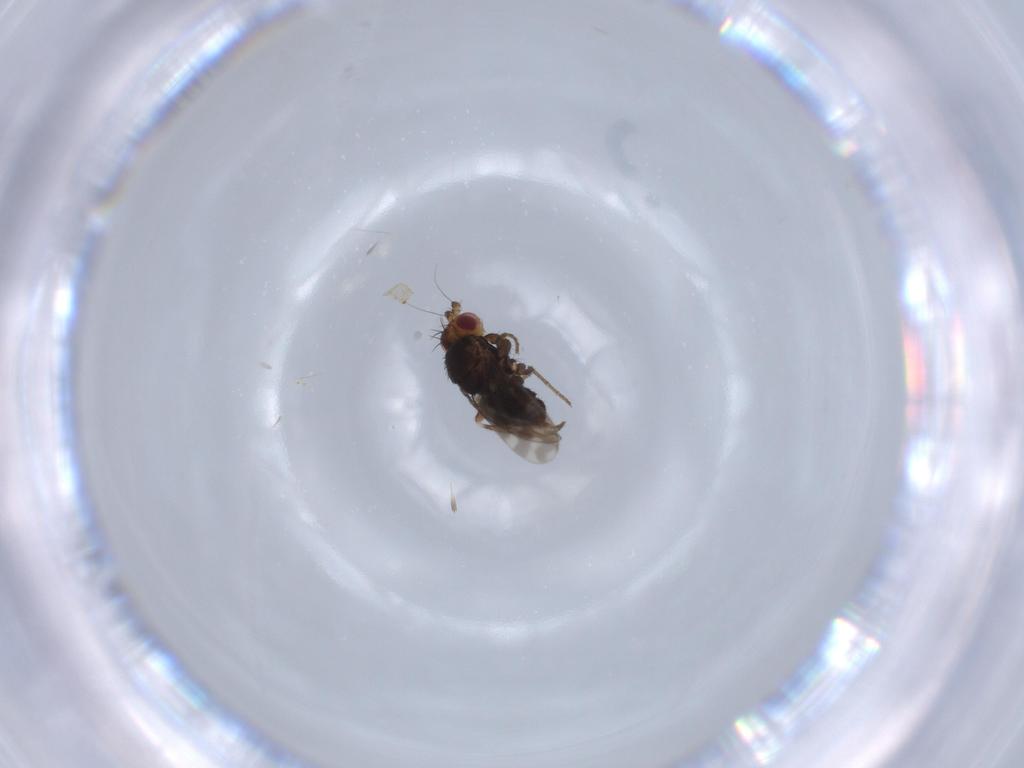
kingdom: Animalia
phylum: Arthropoda
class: Insecta
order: Diptera
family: Sphaeroceridae
